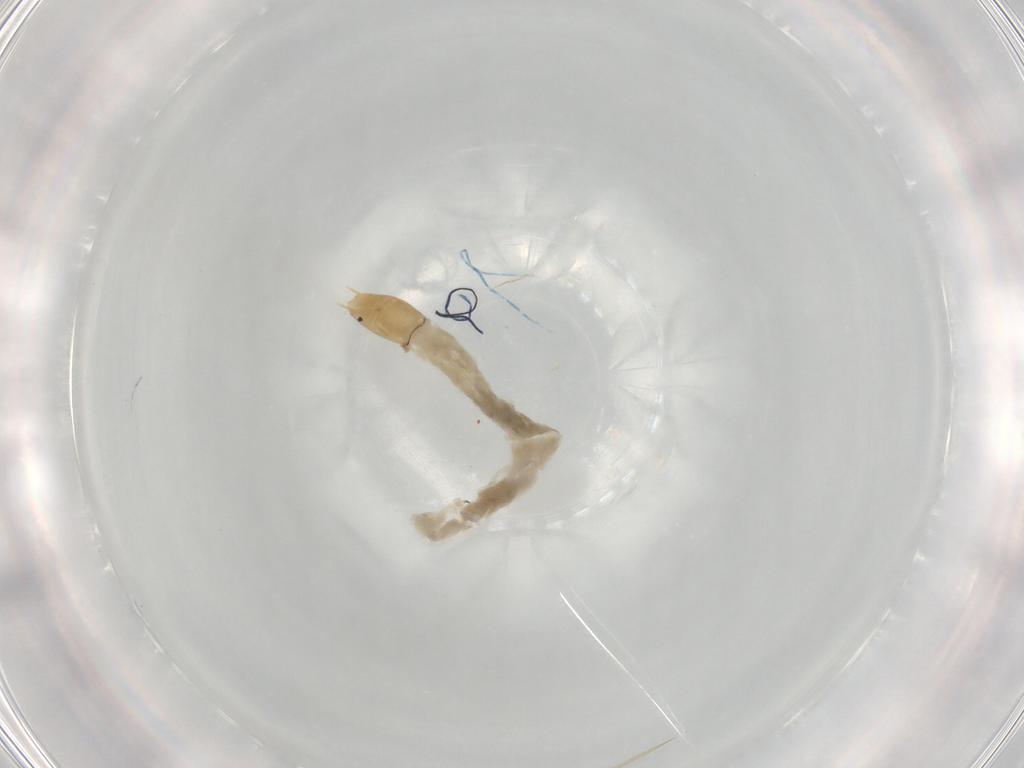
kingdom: Animalia
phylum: Arthropoda
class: Insecta
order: Diptera
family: Chironomidae
